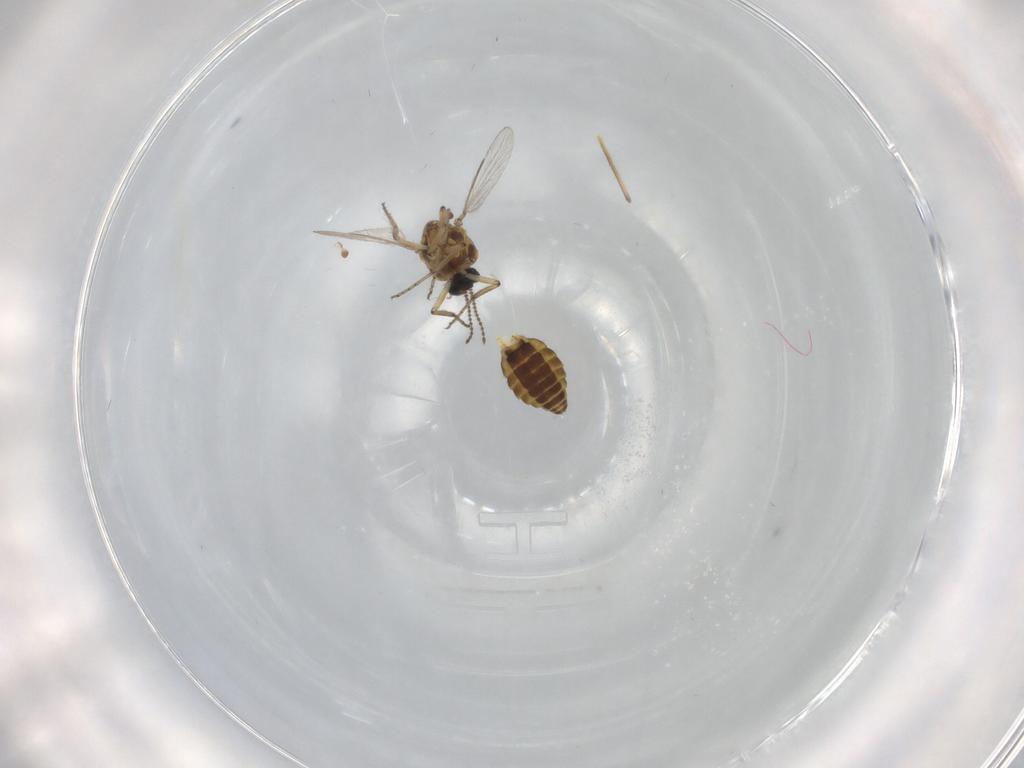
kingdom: Animalia
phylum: Arthropoda
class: Insecta
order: Diptera
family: Ceratopogonidae
